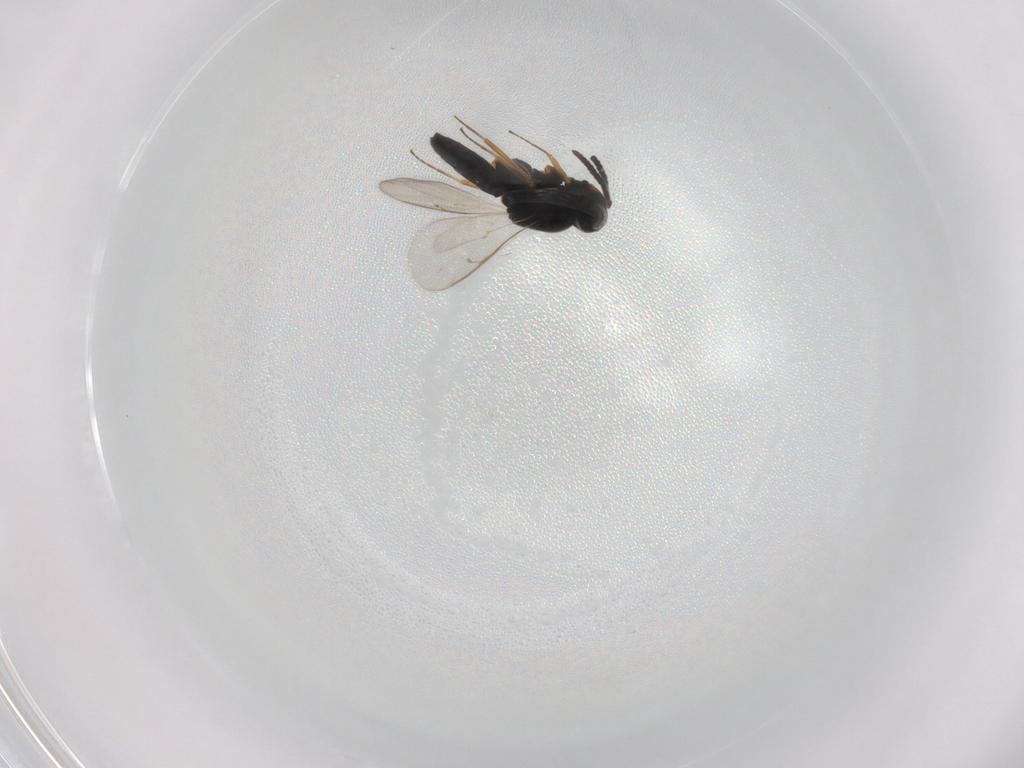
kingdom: Animalia
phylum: Arthropoda
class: Insecta
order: Hymenoptera
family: Scelionidae
